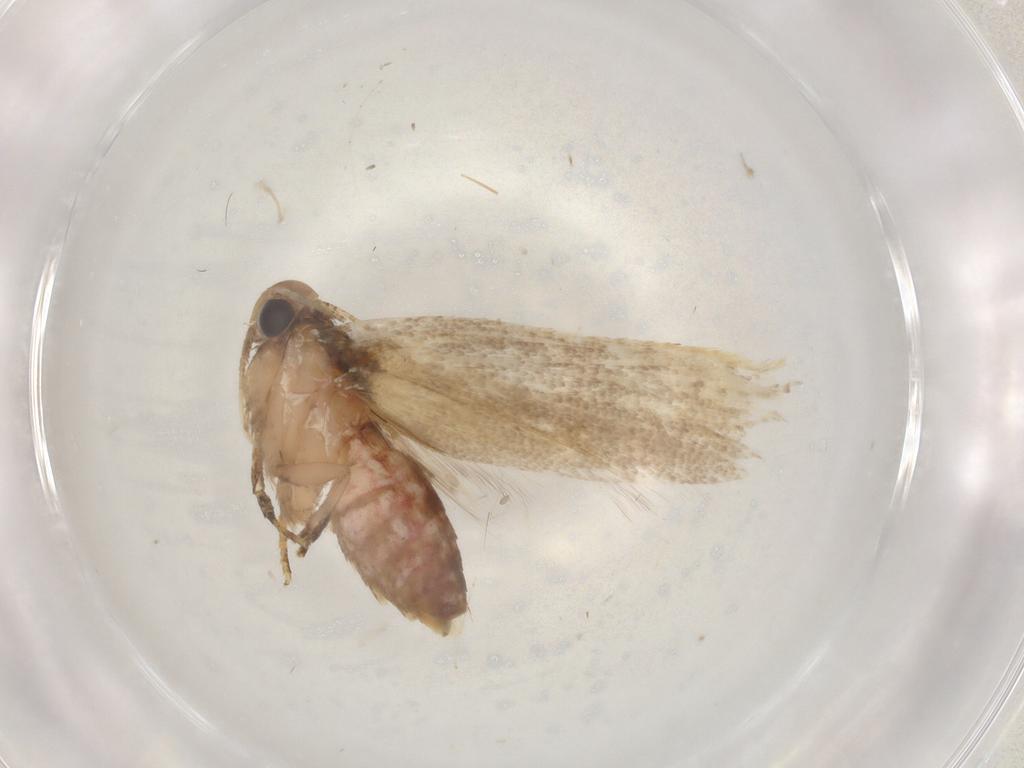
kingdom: Animalia
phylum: Arthropoda
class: Insecta
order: Lepidoptera
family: Oecophoridae
